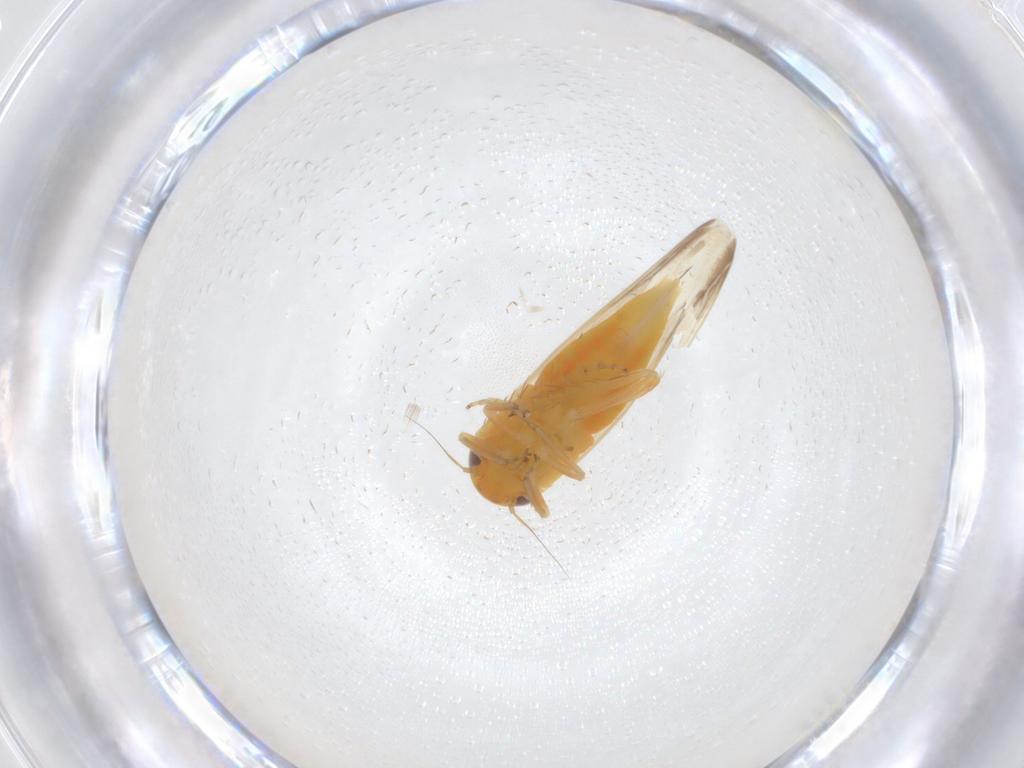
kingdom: Animalia
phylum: Arthropoda
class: Insecta
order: Hemiptera
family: Cicadellidae
